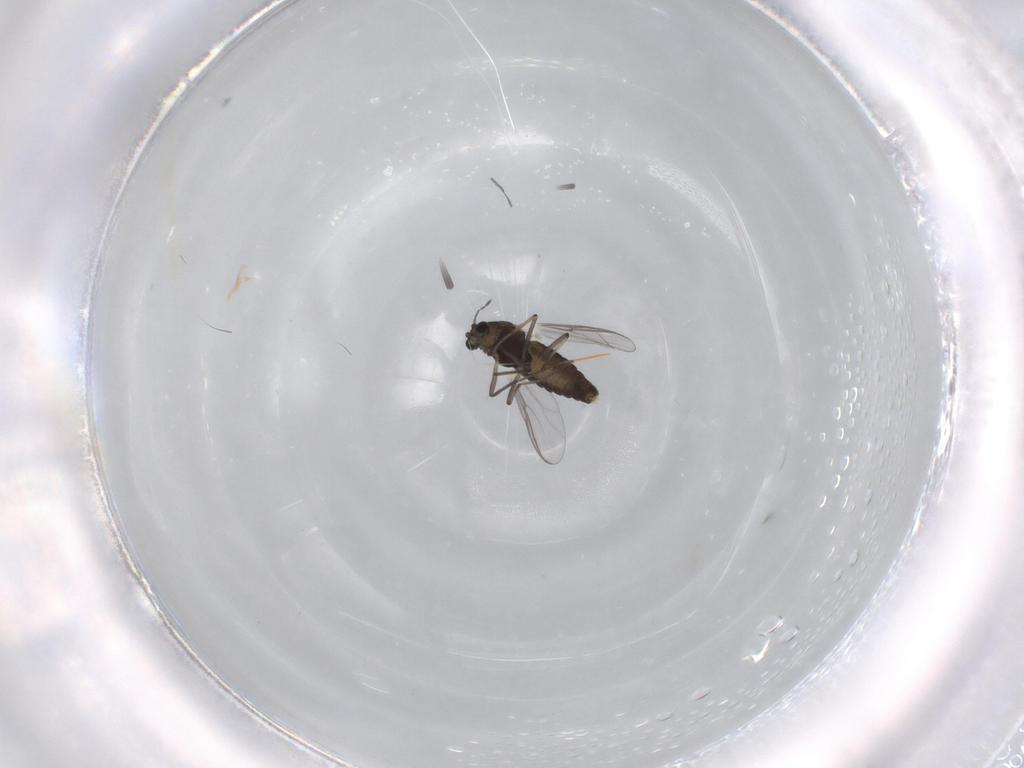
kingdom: Animalia
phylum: Arthropoda
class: Insecta
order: Diptera
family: Chironomidae
